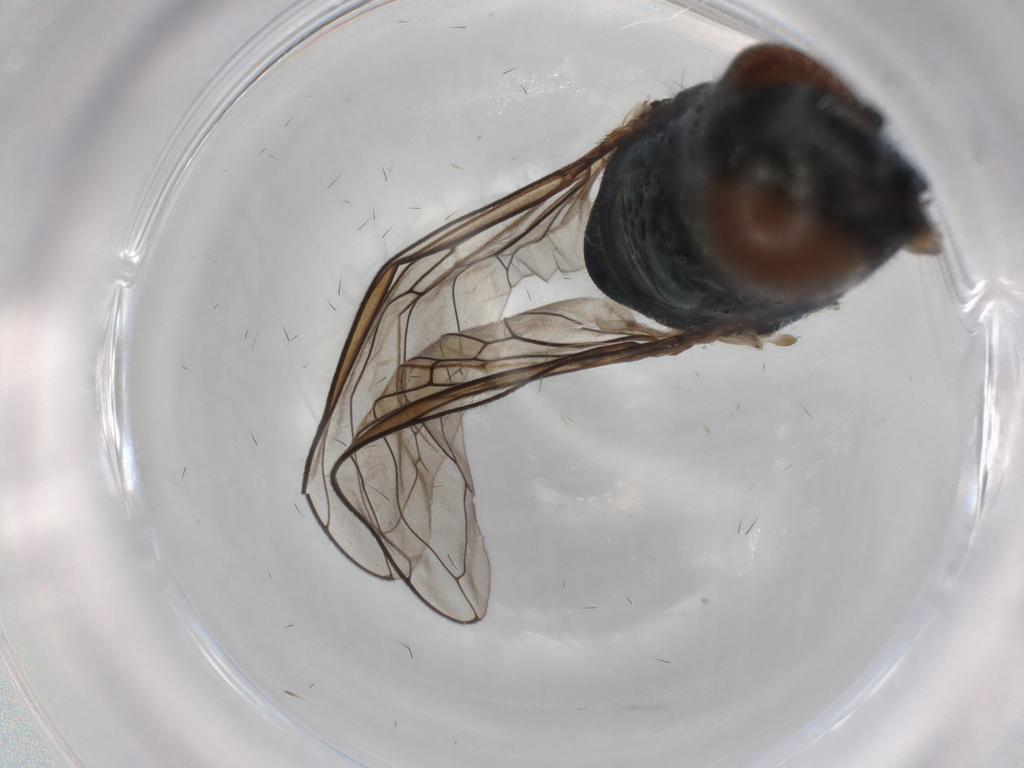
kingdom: Animalia
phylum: Arthropoda
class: Insecta
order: Diptera
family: Syrphidae
